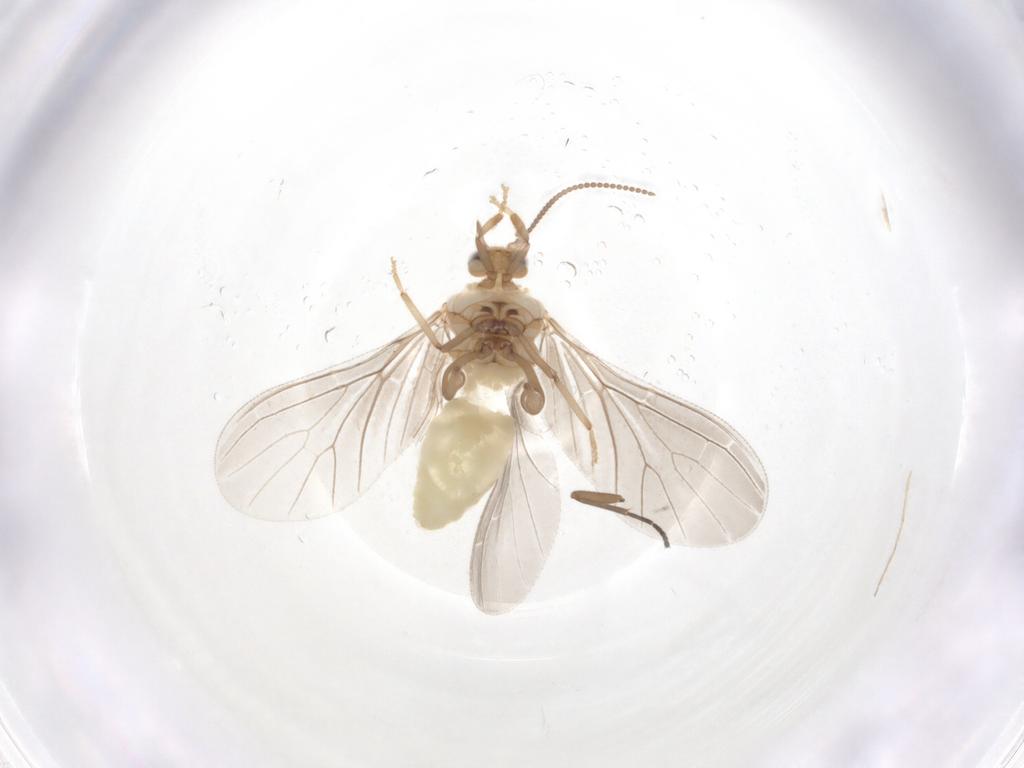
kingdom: Animalia
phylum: Arthropoda
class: Insecta
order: Neuroptera
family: Coniopterygidae
